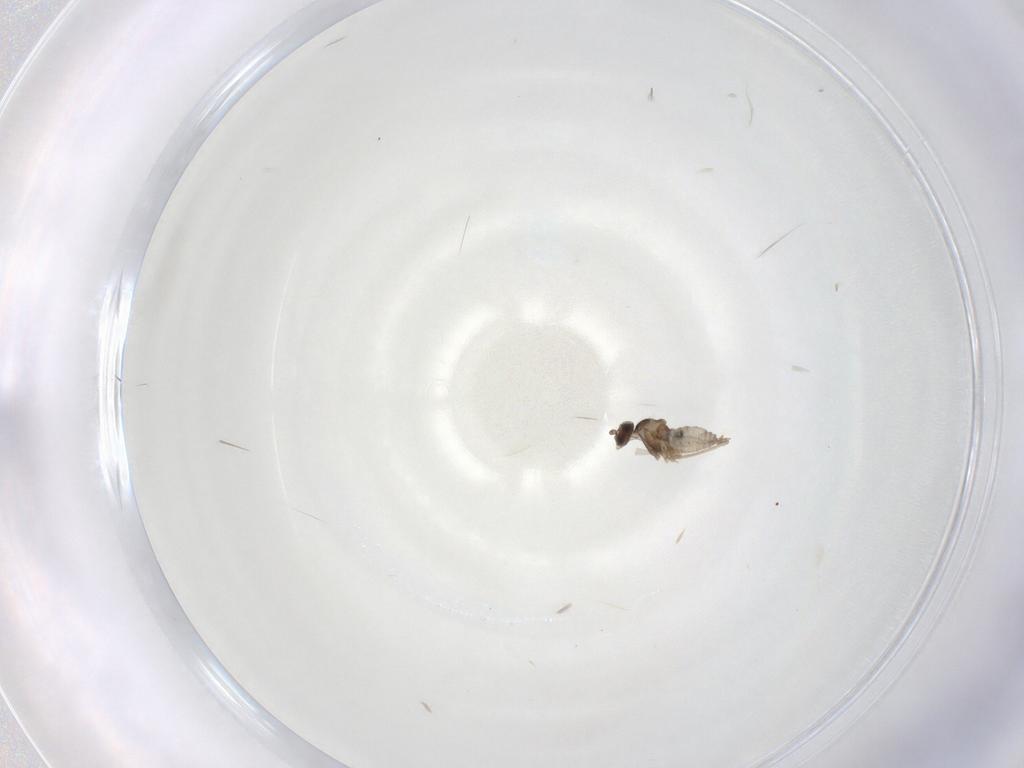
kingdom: Animalia
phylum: Arthropoda
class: Insecta
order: Diptera
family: Cecidomyiidae
